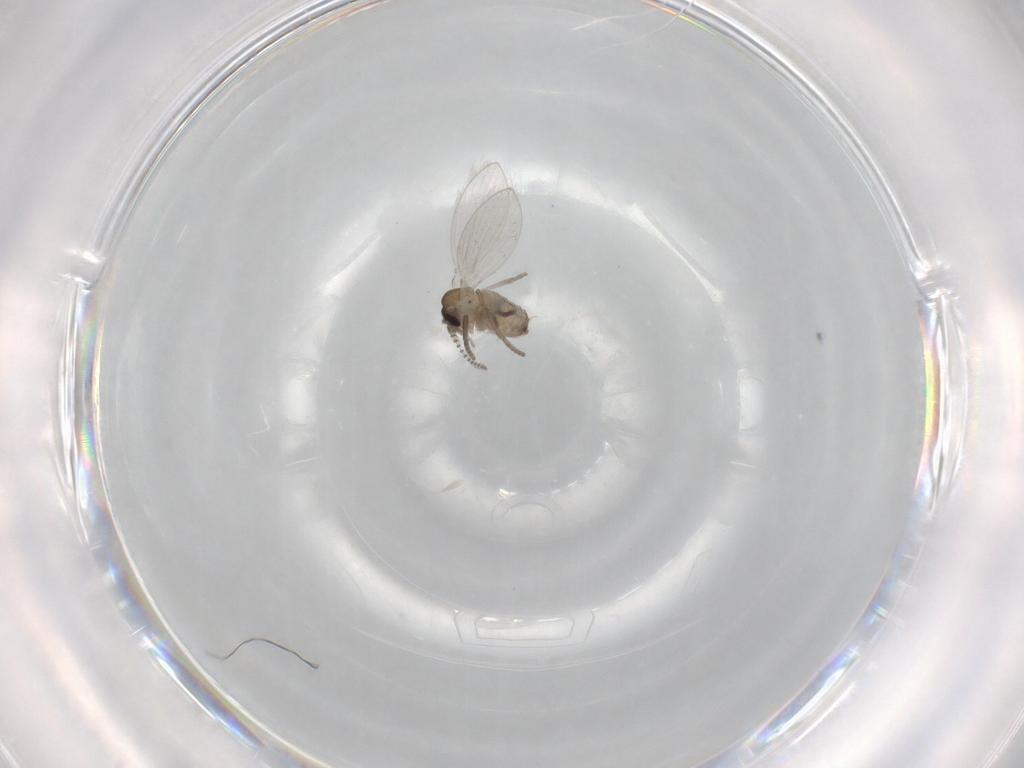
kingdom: Animalia
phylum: Arthropoda
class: Insecta
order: Diptera
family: Psychodidae
